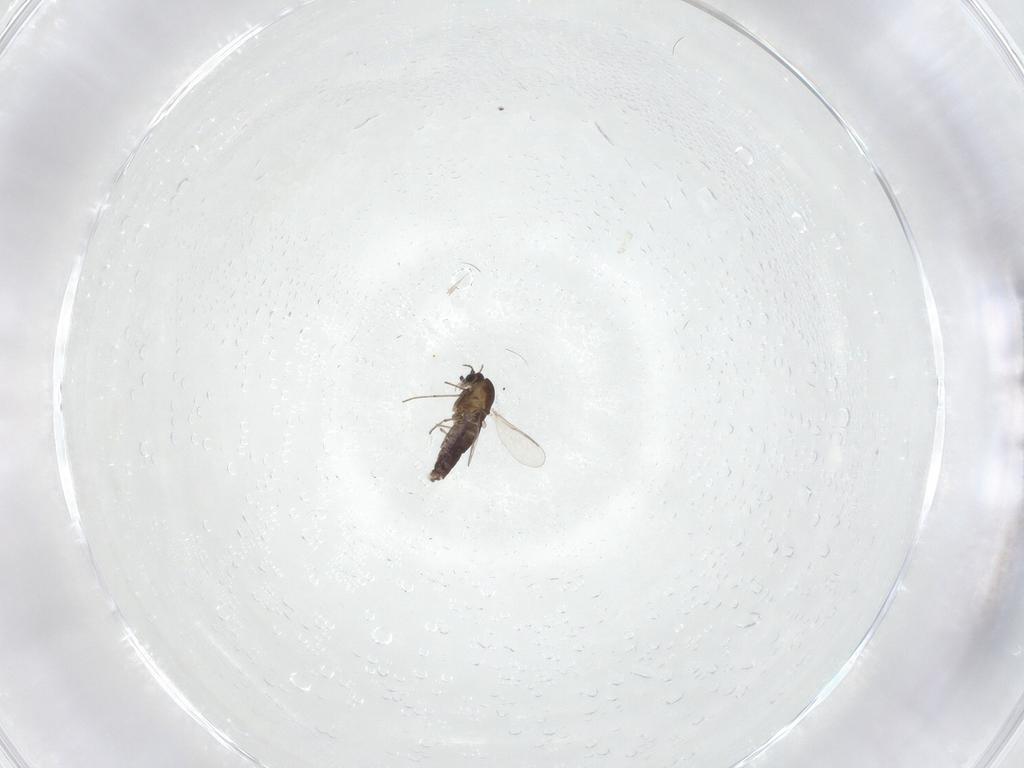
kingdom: Animalia
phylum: Arthropoda
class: Insecta
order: Diptera
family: Chironomidae
